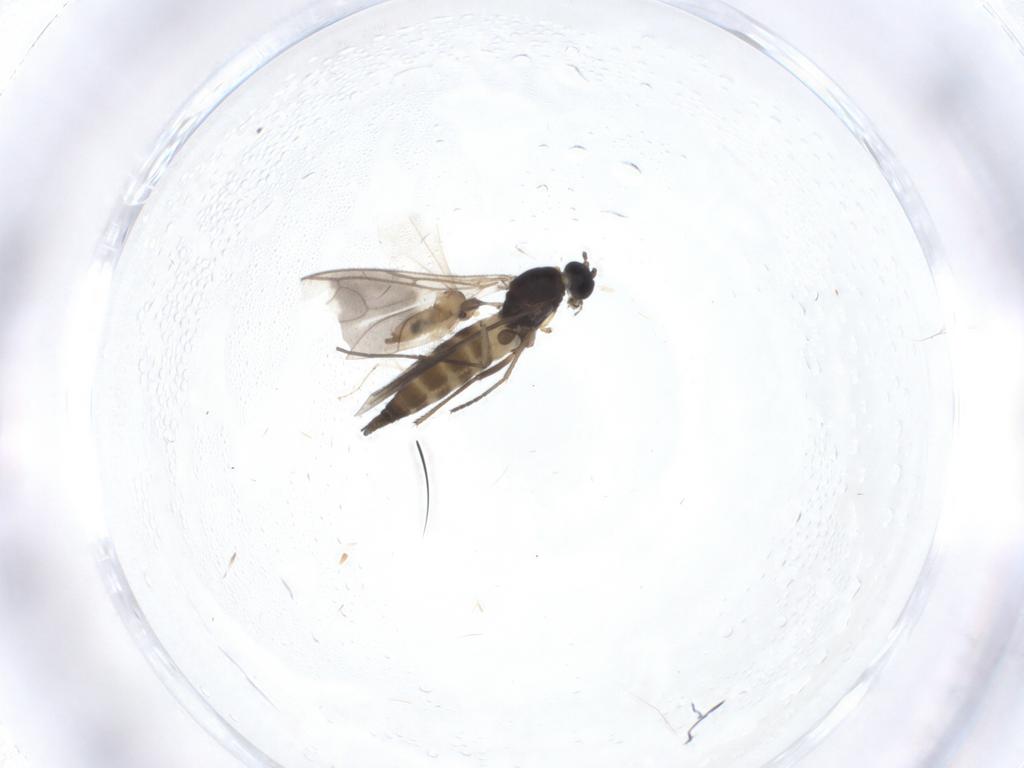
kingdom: Animalia
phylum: Arthropoda
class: Insecta
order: Diptera
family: Sciaridae
